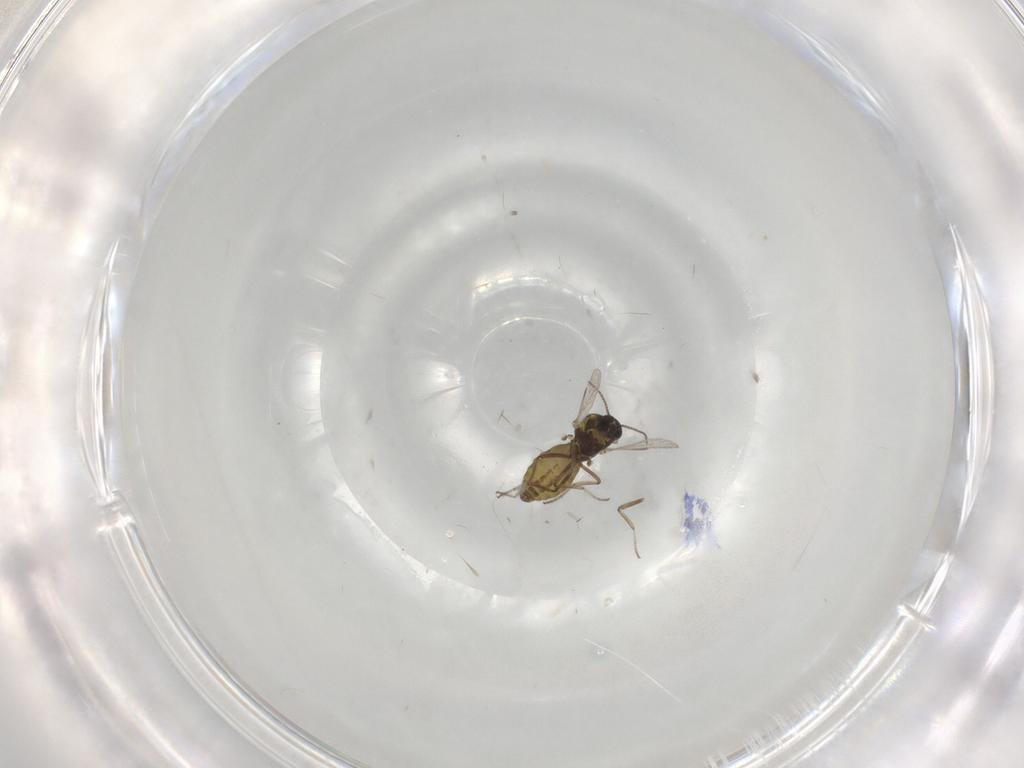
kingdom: Animalia
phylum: Arthropoda
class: Insecta
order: Diptera
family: Ceratopogonidae
